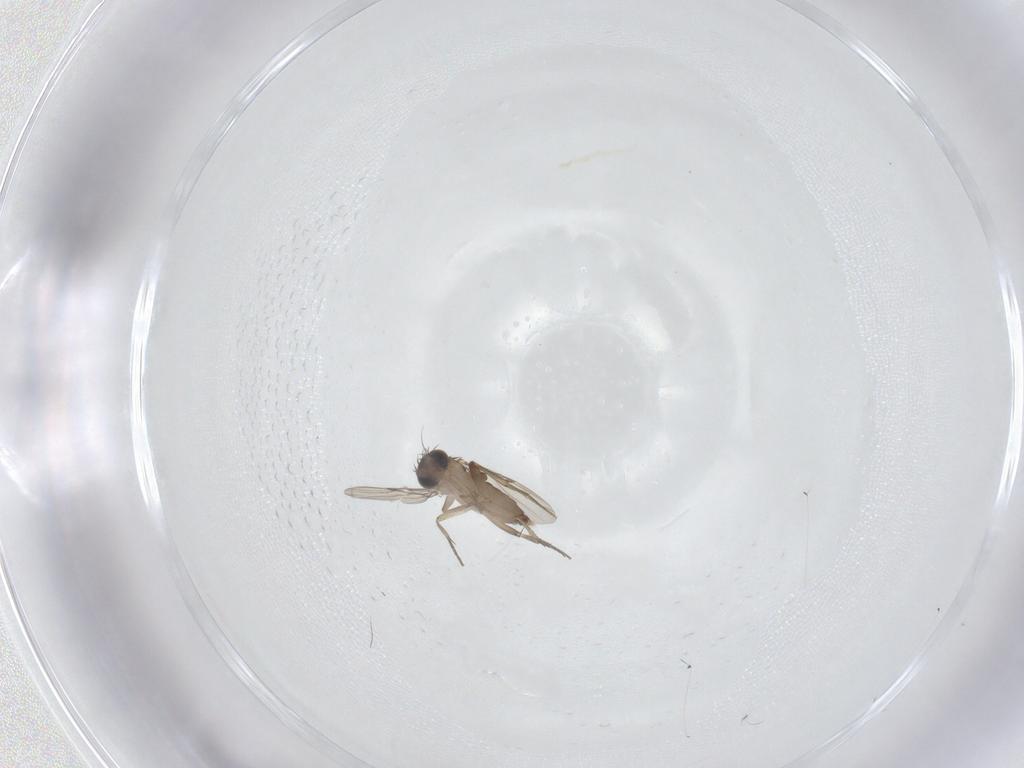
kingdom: Animalia
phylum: Arthropoda
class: Insecta
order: Diptera
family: Phoridae
